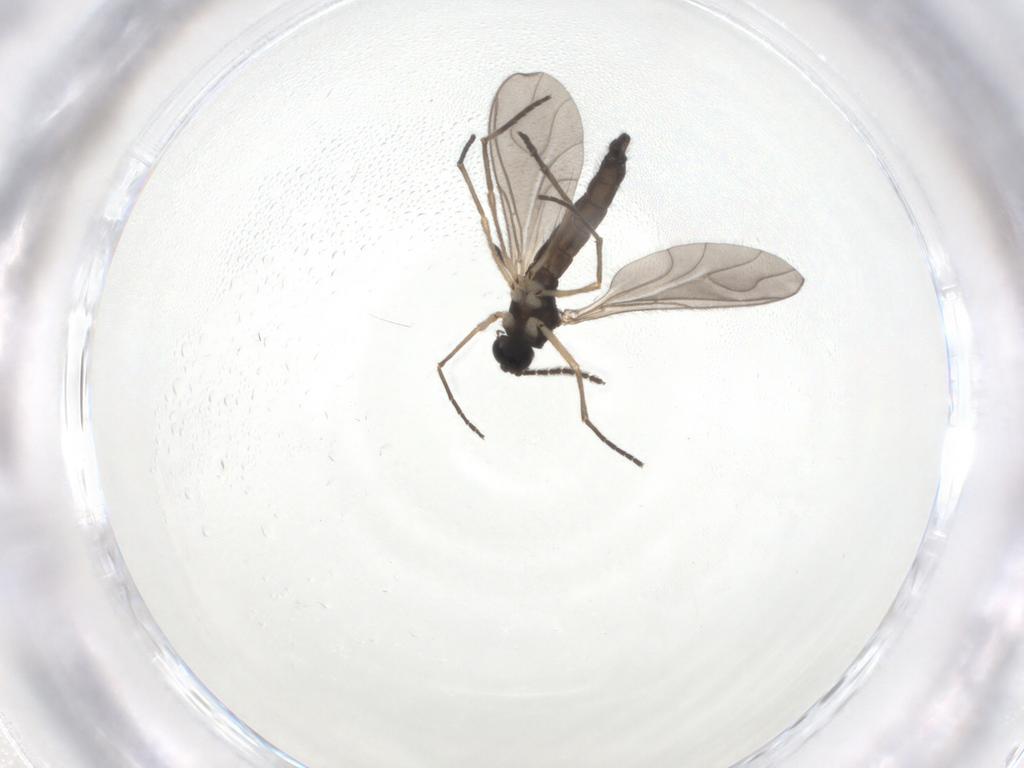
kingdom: Animalia
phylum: Arthropoda
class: Insecta
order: Diptera
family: Sciaridae
